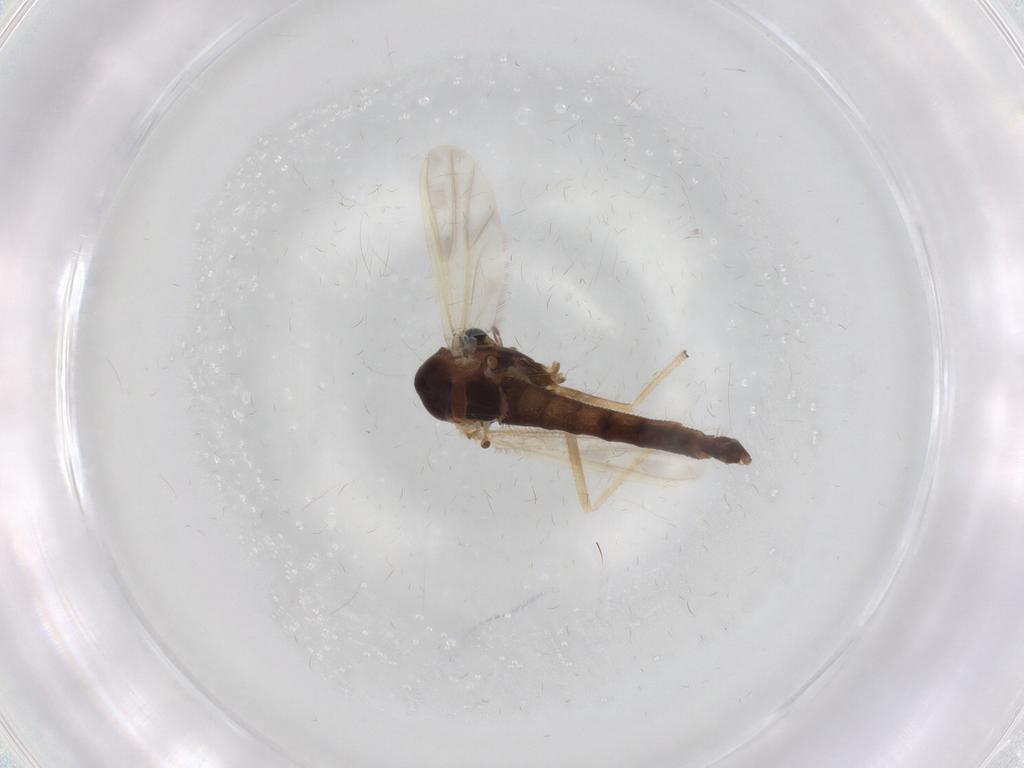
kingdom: Animalia
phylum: Arthropoda
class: Insecta
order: Diptera
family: Chironomidae
